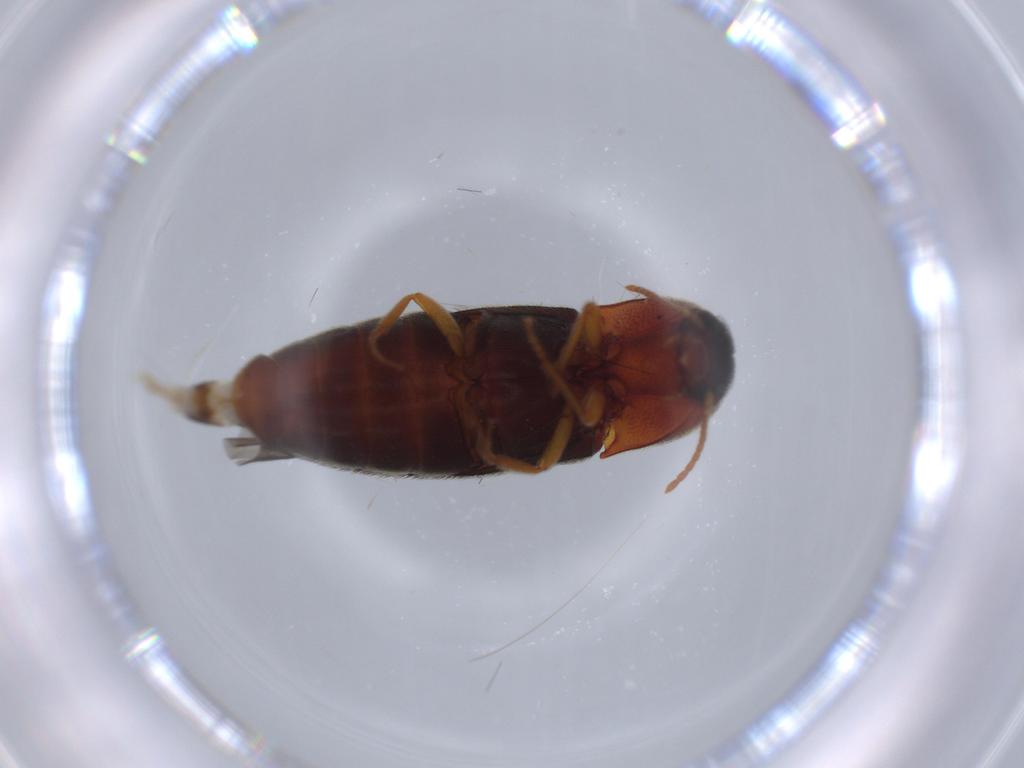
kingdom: Animalia
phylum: Arthropoda
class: Insecta
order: Coleoptera
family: Elateridae
